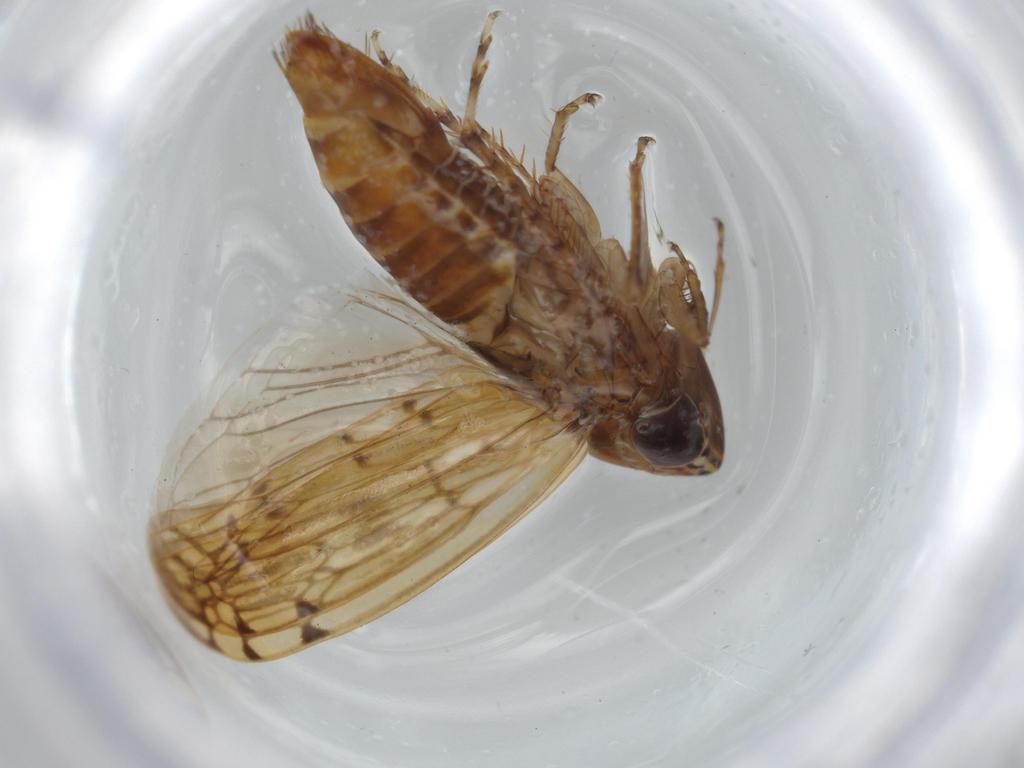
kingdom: Animalia
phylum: Arthropoda
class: Insecta
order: Hemiptera
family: Cicadellidae
